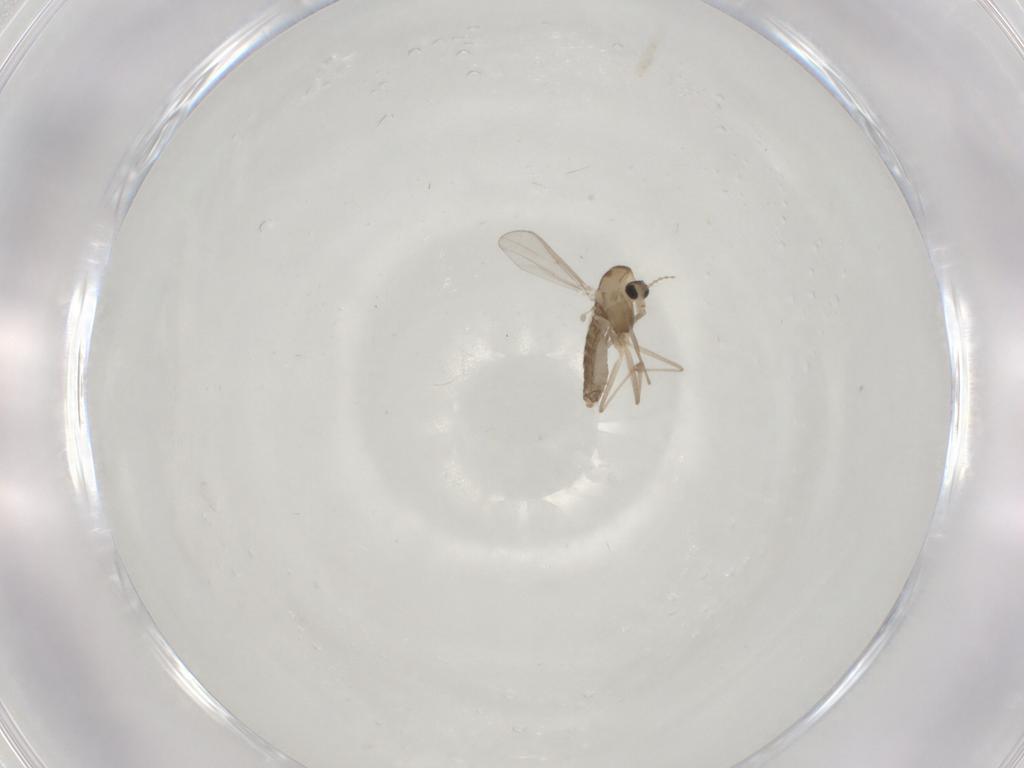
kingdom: Animalia
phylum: Arthropoda
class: Insecta
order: Diptera
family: Chironomidae
